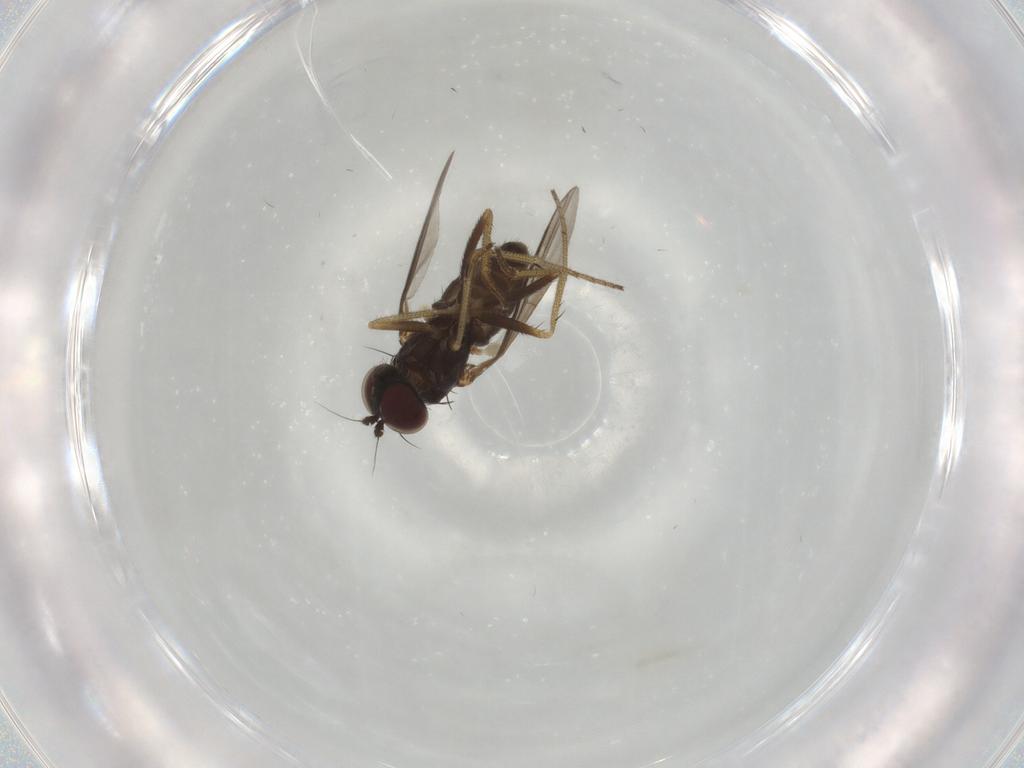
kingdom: Animalia
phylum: Arthropoda
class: Insecta
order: Diptera
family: Dolichopodidae
